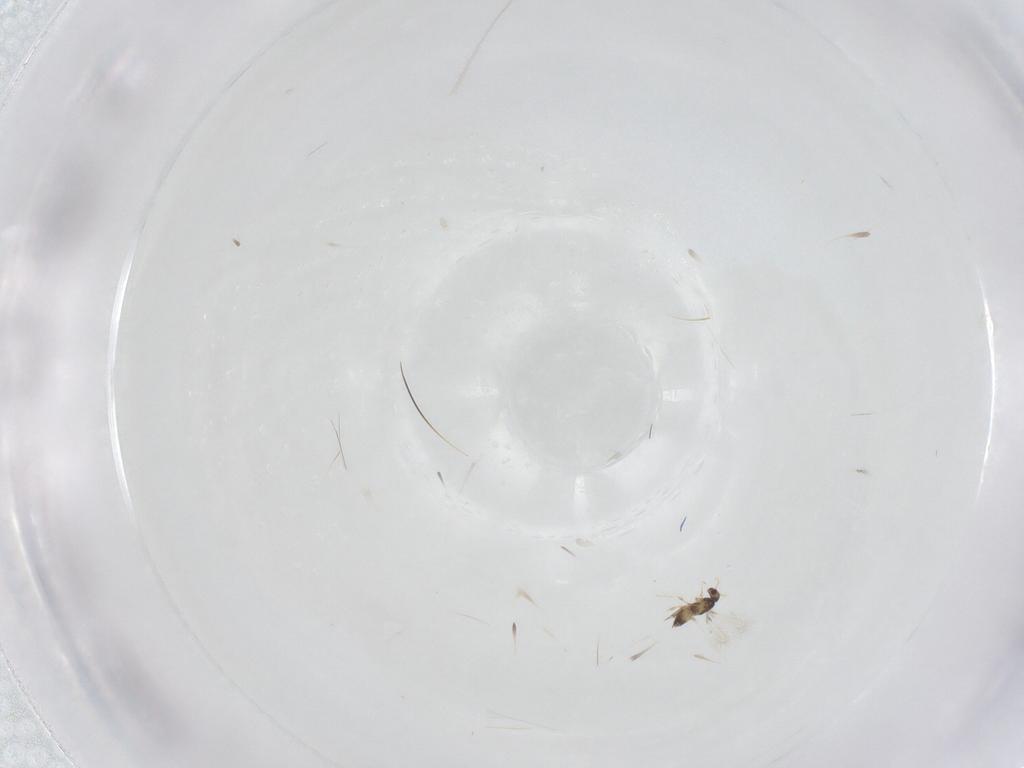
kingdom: Animalia
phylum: Arthropoda
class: Insecta
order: Hymenoptera
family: Mymaridae
